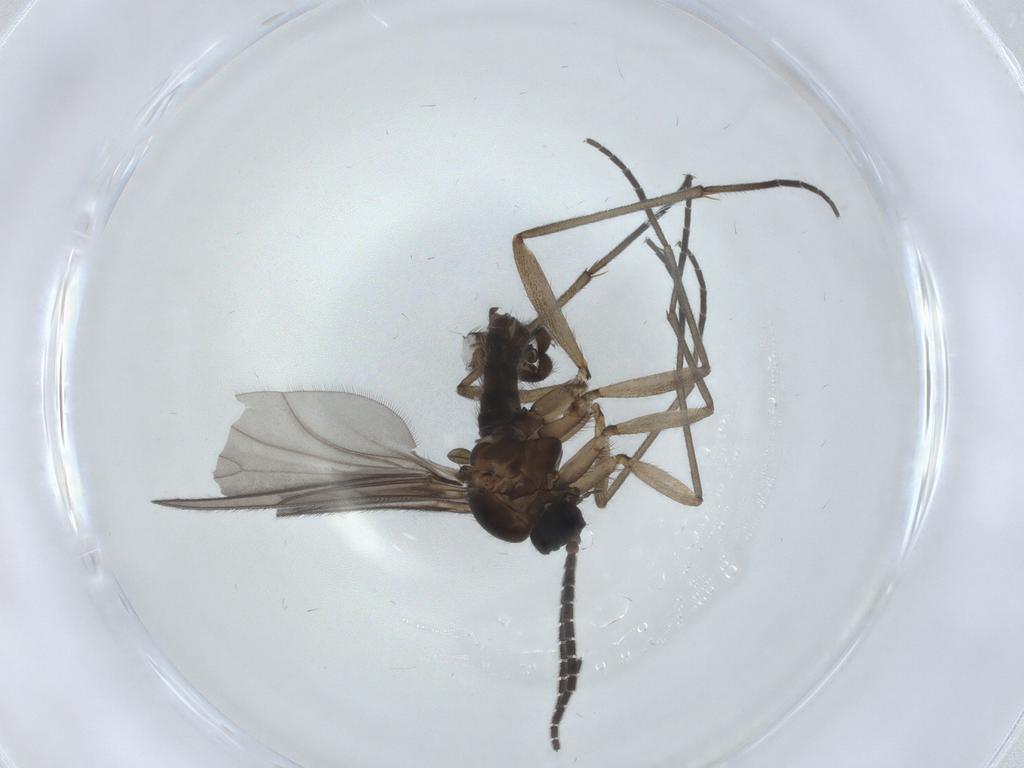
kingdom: Animalia
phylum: Arthropoda
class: Insecta
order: Diptera
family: Sciaridae
